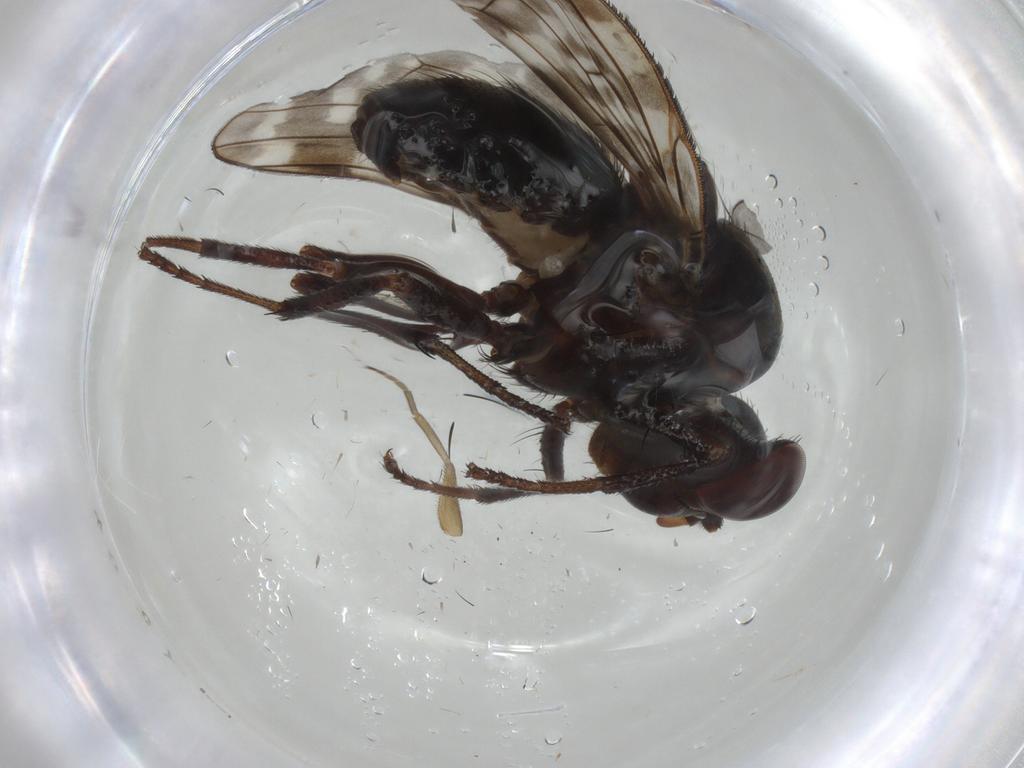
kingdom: Animalia
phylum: Arthropoda
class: Insecta
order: Diptera
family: Lauxaniidae
